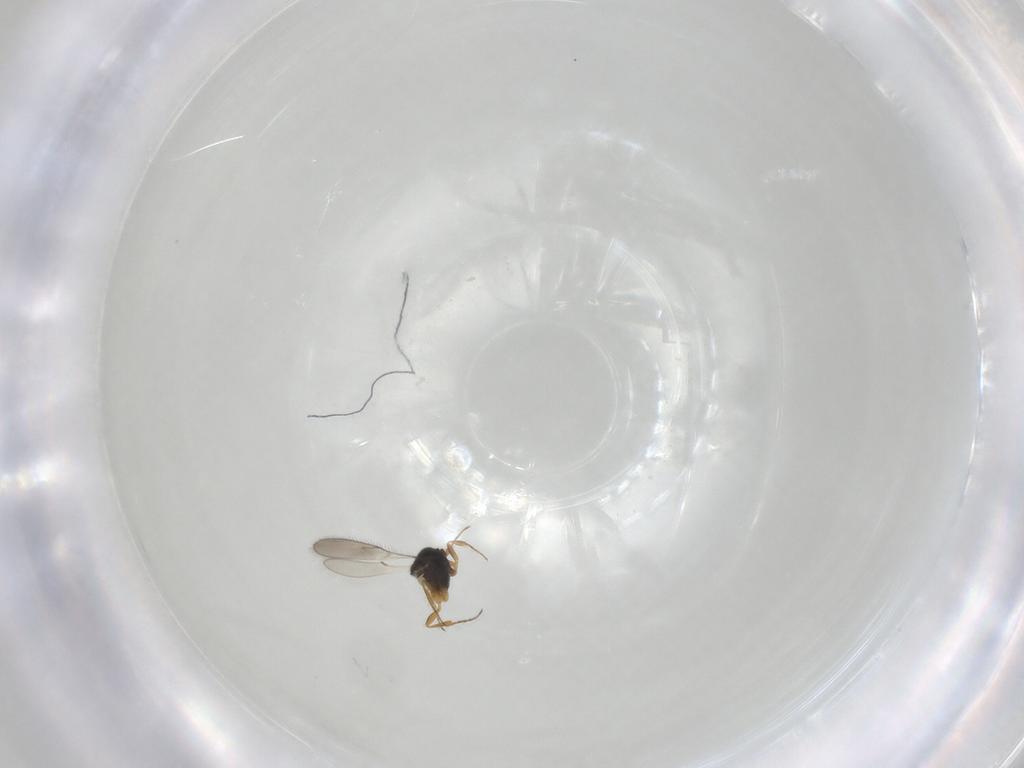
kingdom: Animalia
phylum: Arthropoda
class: Insecta
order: Hymenoptera
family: Scelionidae
